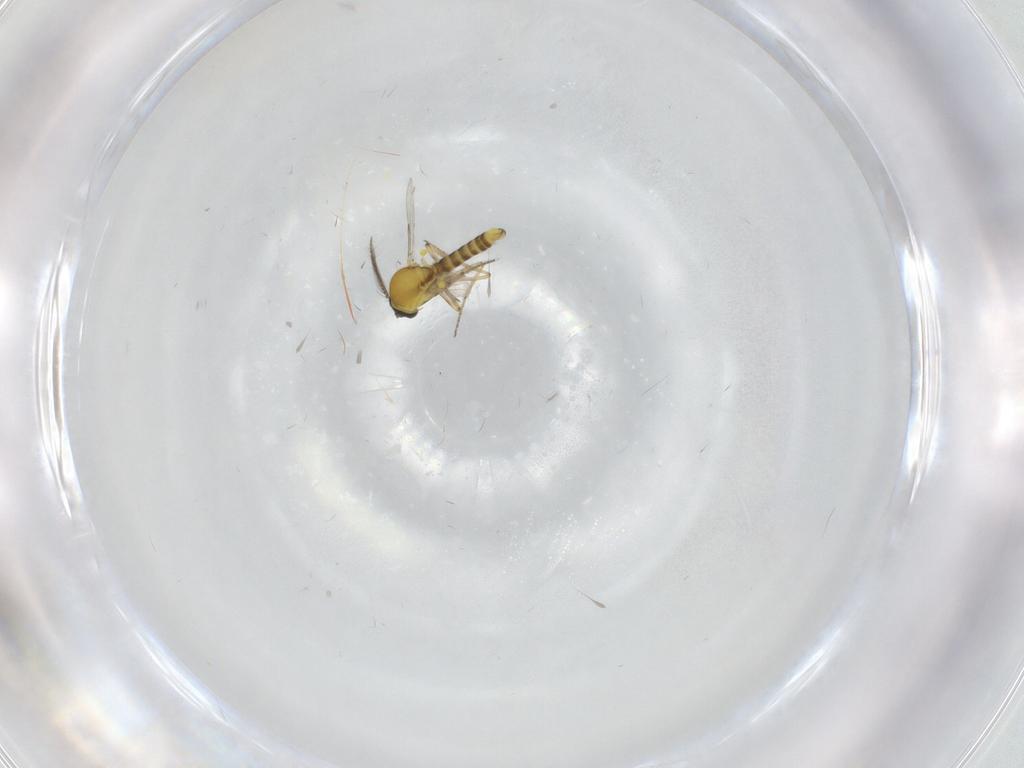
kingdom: Animalia
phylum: Arthropoda
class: Insecta
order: Diptera
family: Ceratopogonidae
